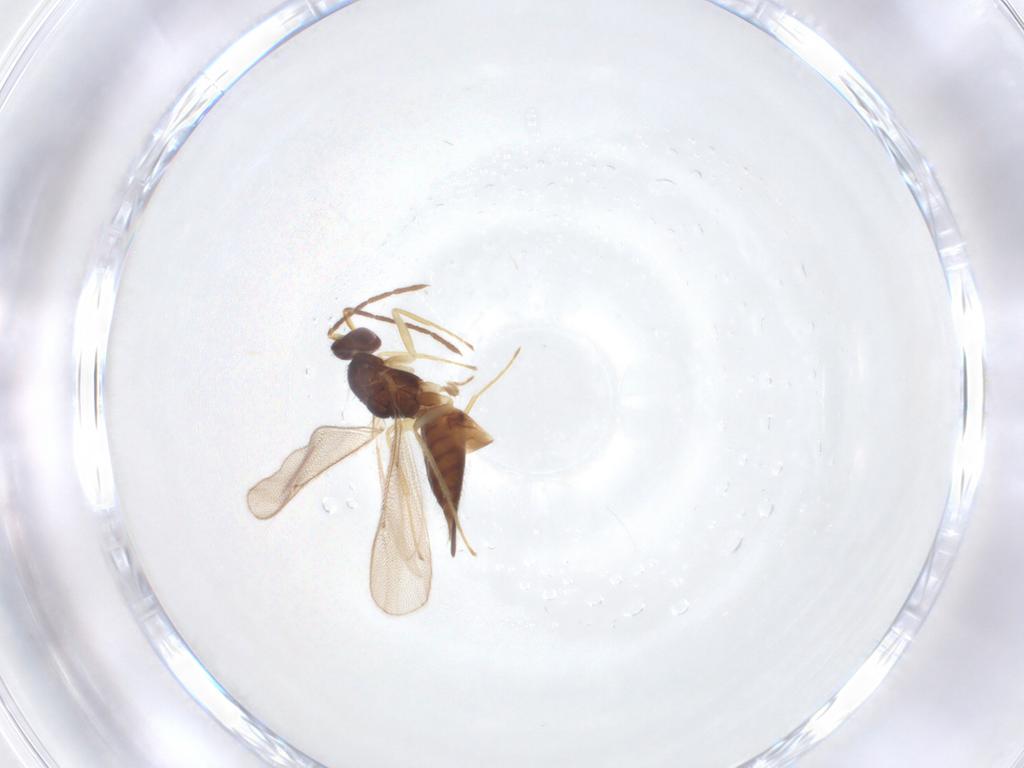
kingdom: Animalia
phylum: Arthropoda
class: Insecta
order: Hymenoptera
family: Eulophidae
